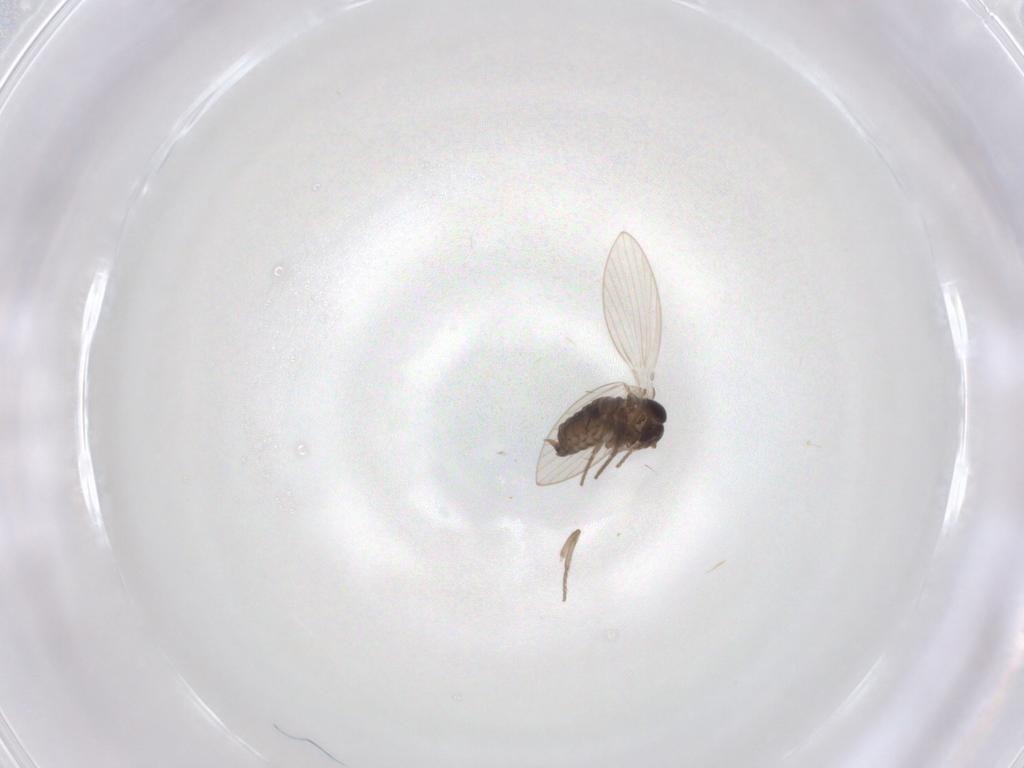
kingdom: Animalia
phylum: Arthropoda
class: Insecta
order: Diptera
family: Psychodidae
